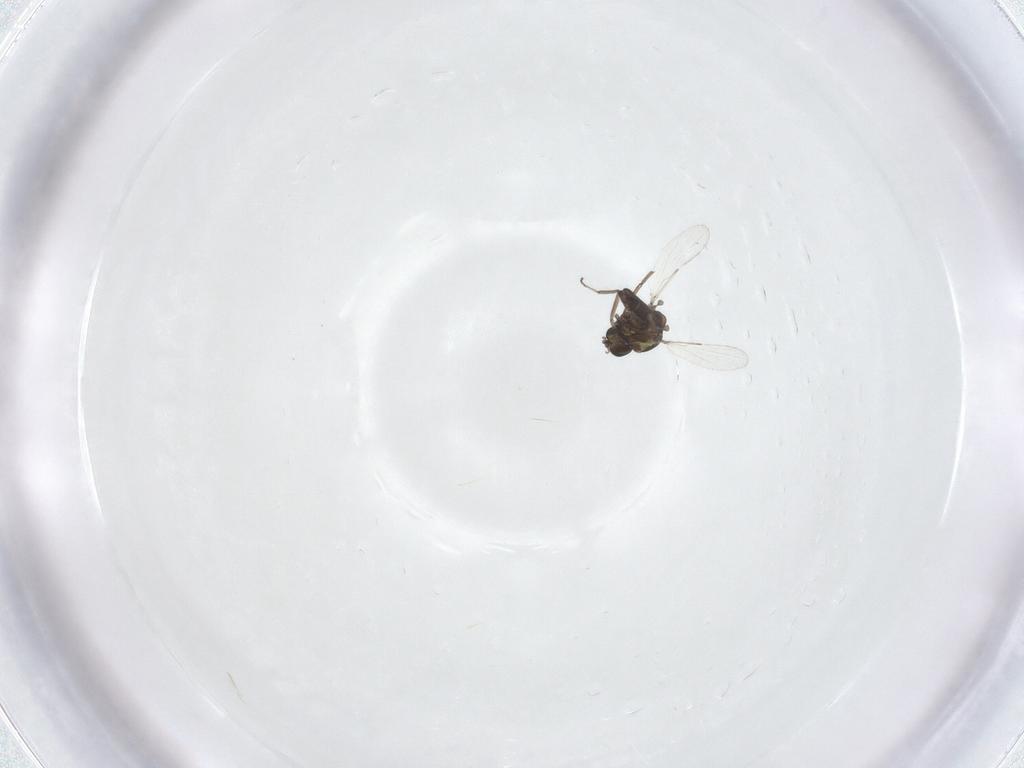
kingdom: Animalia
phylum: Arthropoda
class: Insecta
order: Diptera
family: Ceratopogonidae
